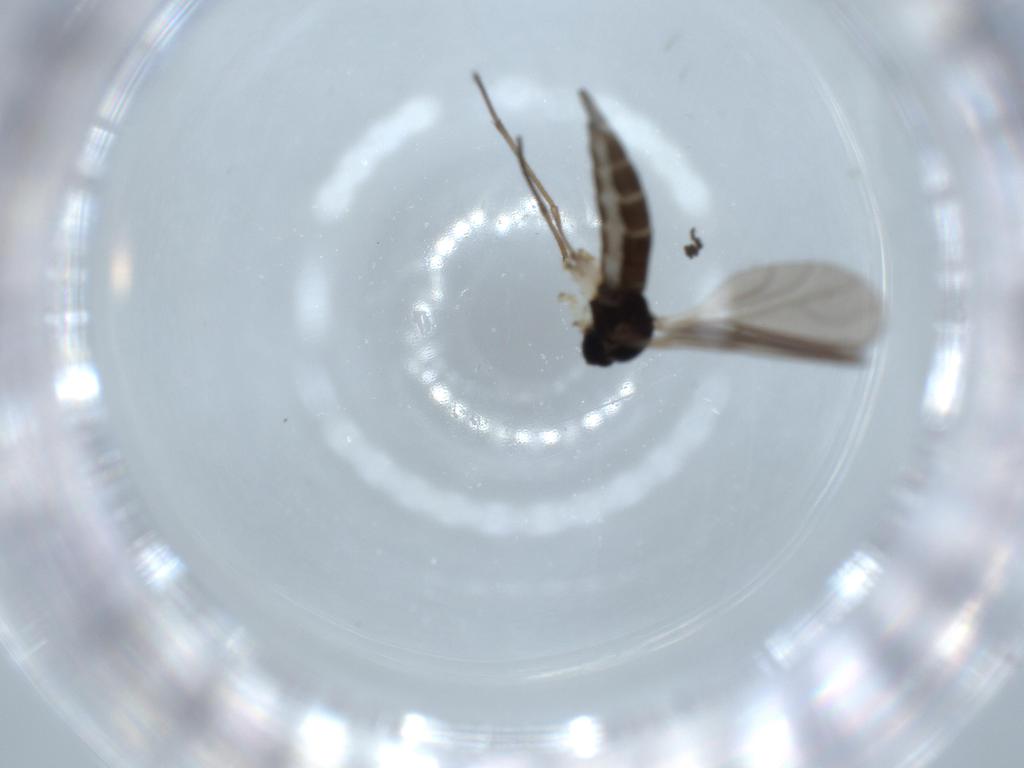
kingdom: Animalia
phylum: Arthropoda
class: Insecta
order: Diptera
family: Sciaridae
